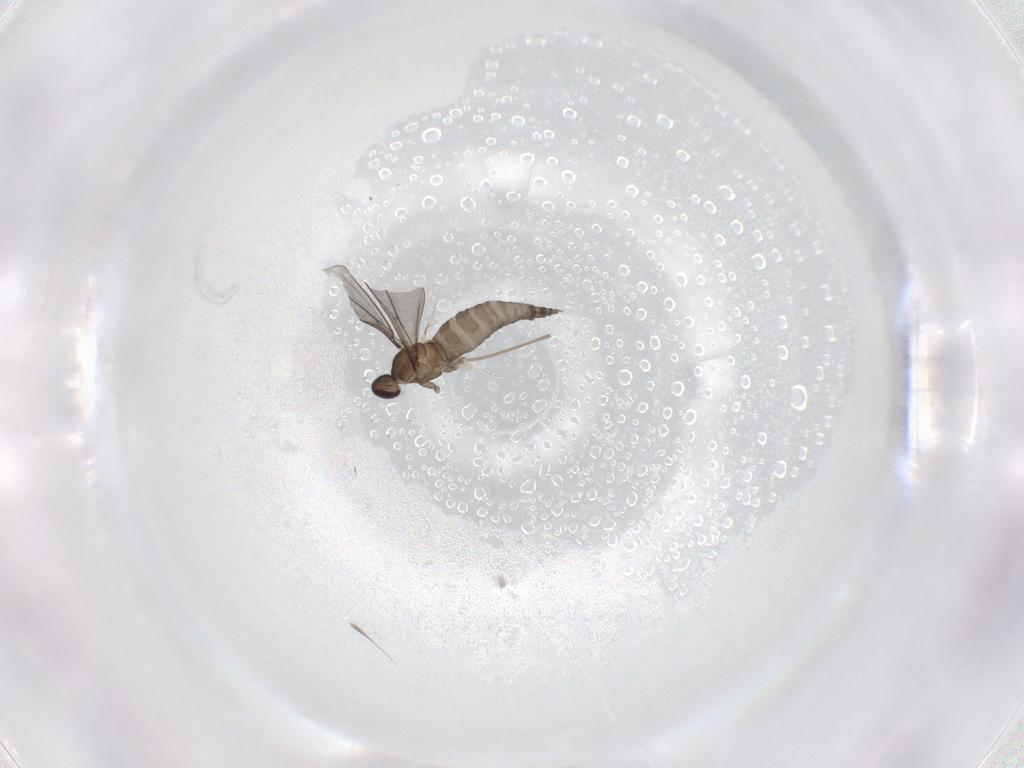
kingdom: Animalia
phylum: Arthropoda
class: Insecta
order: Diptera
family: Cecidomyiidae
